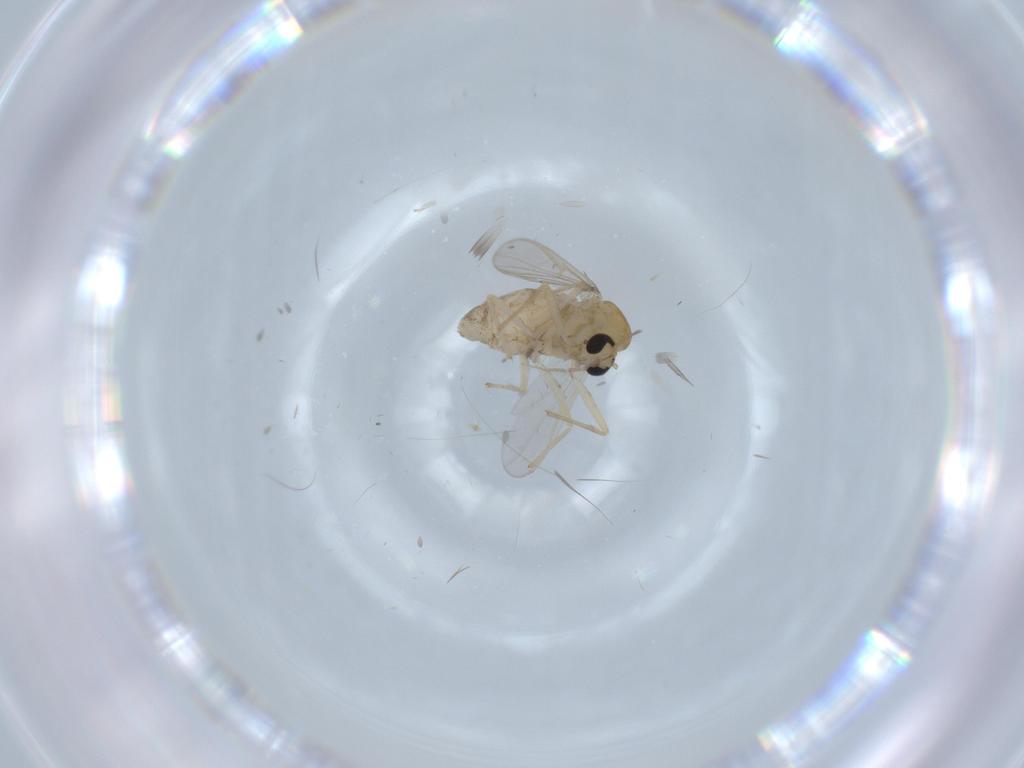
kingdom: Animalia
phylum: Arthropoda
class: Insecta
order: Diptera
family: Chironomidae
